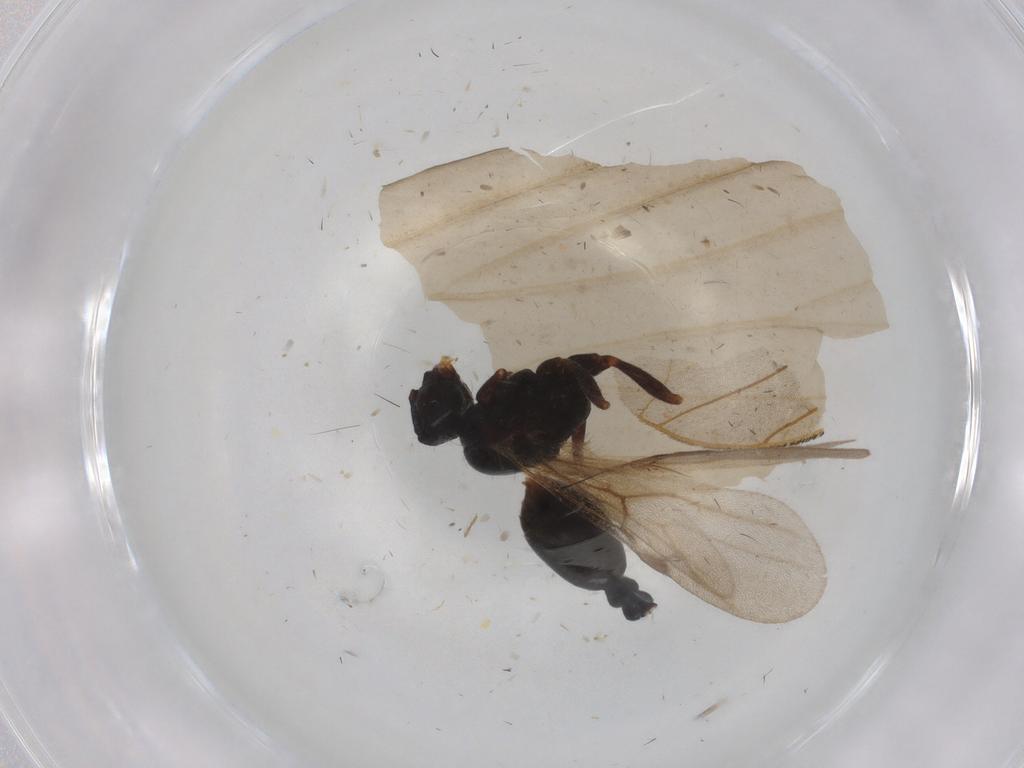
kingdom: Animalia
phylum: Arthropoda
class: Insecta
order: Hymenoptera
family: Formicidae
